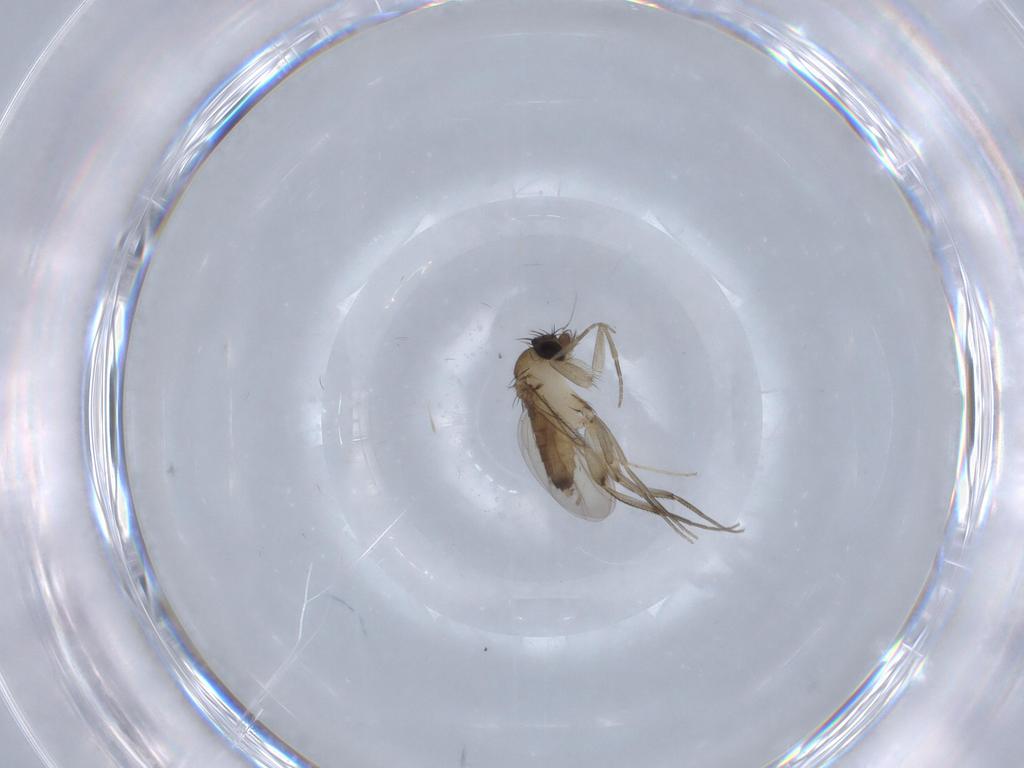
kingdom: Animalia
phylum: Arthropoda
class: Insecta
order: Diptera
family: Phoridae
